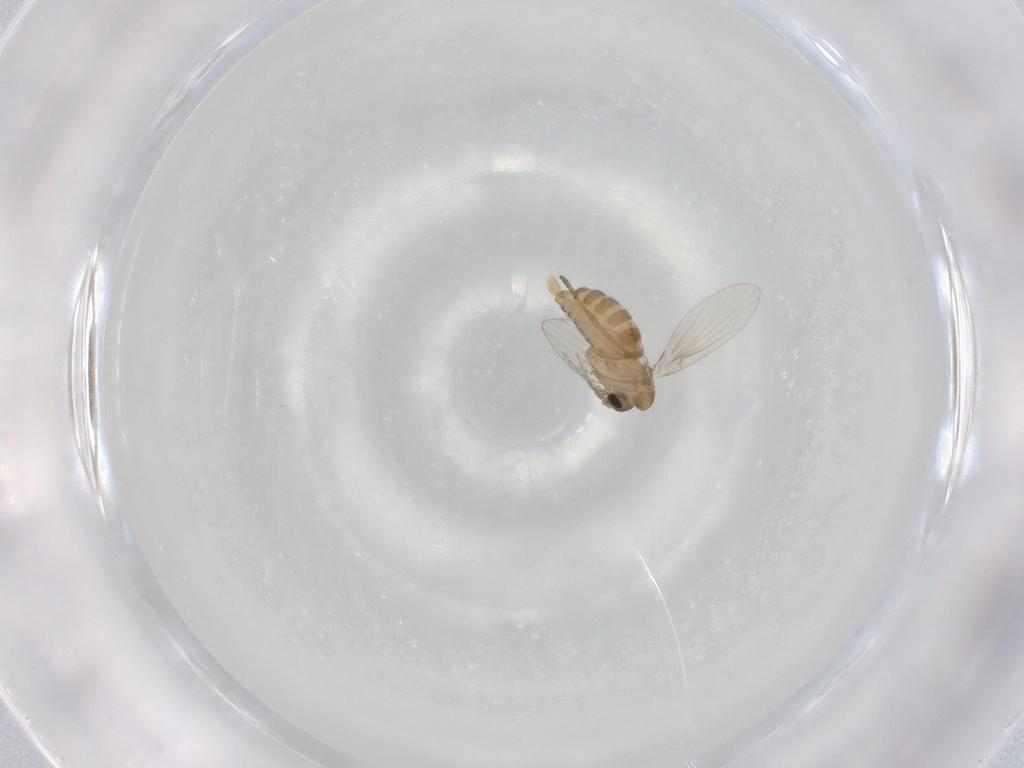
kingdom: Animalia
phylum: Arthropoda
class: Insecta
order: Diptera
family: Psychodidae
